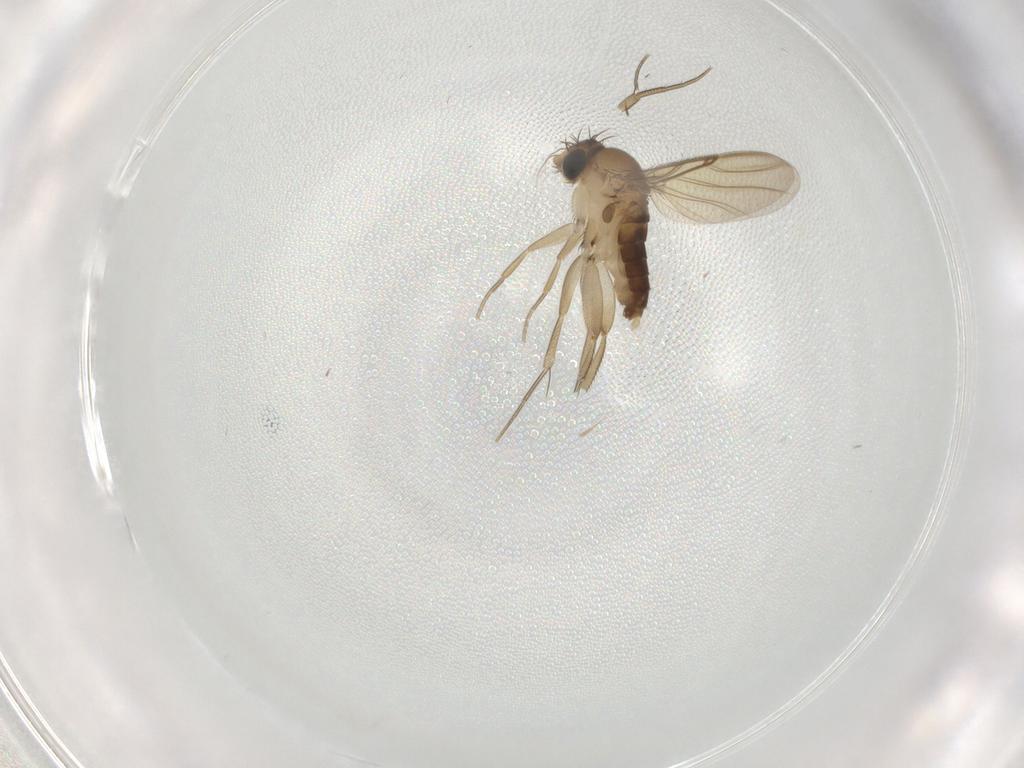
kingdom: Animalia
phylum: Arthropoda
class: Insecta
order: Diptera
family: Phoridae
